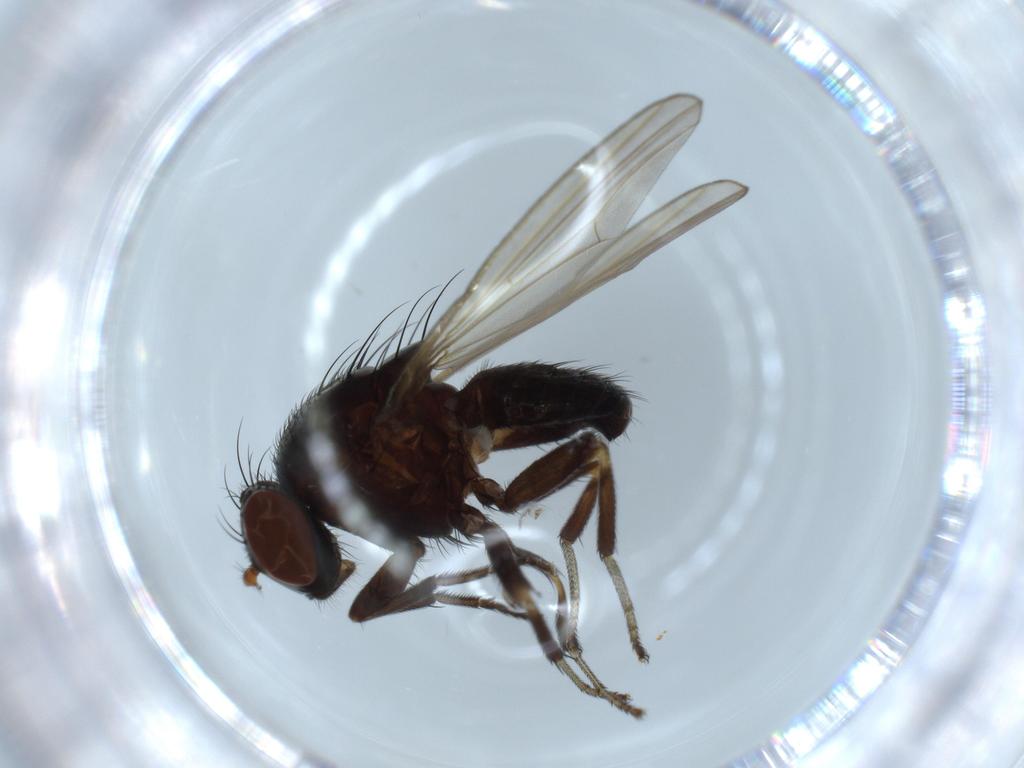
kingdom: Animalia
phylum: Arthropoda
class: Insecta
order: Diptera
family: Lauxaniidae
